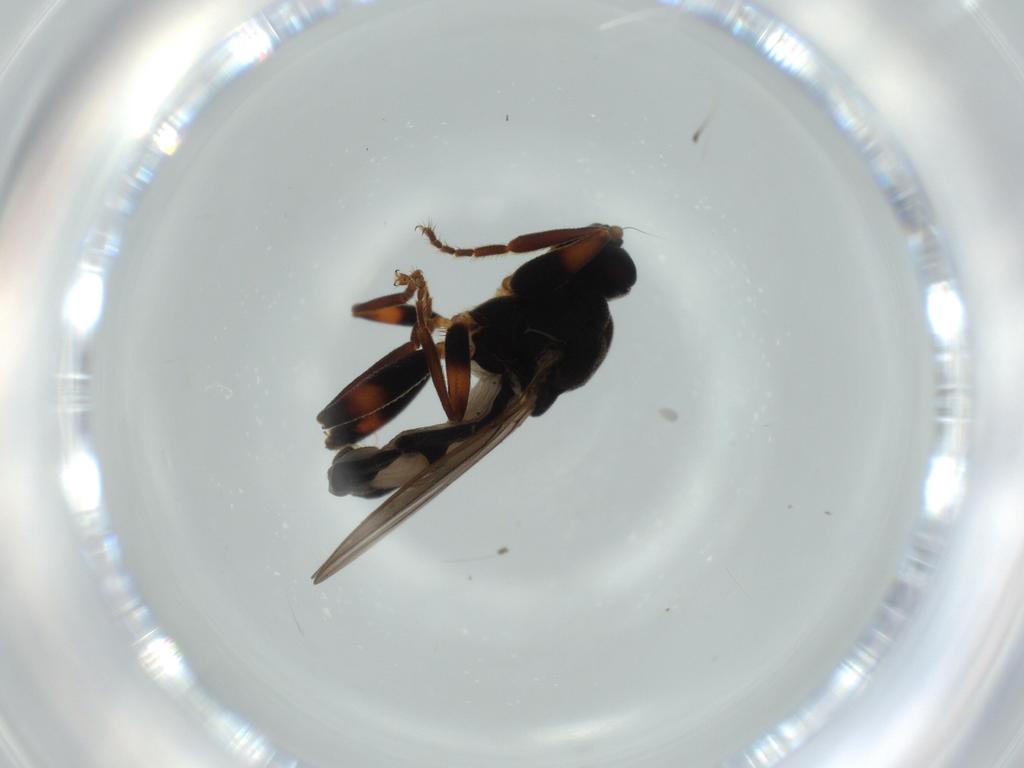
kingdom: Animalia
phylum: Arthropoda
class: Insecta
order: Diptera
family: Sphaeroceridae
